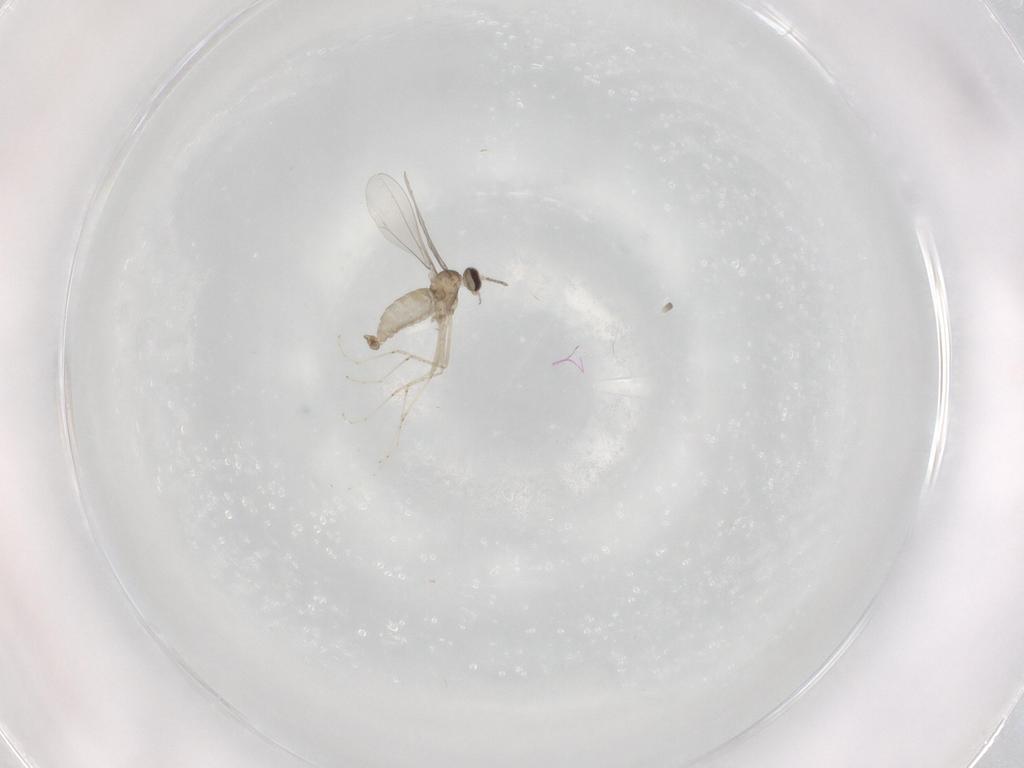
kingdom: Animalia
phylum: Arthropoda
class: Insecta
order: Diptera
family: Cecidomyiidae
